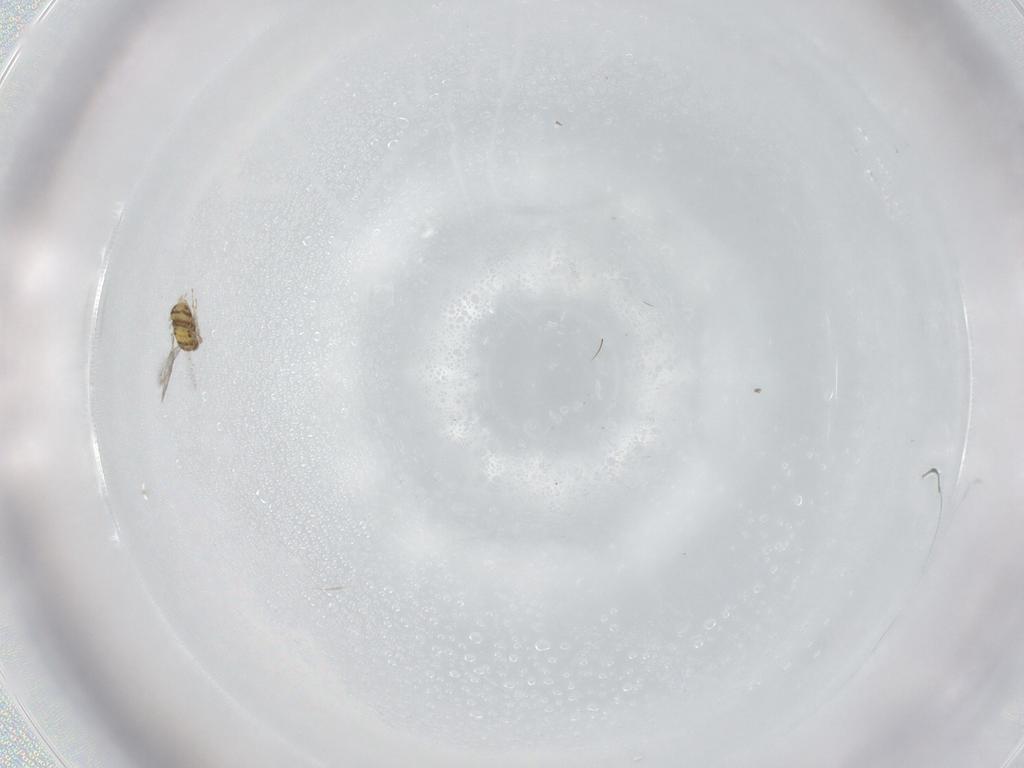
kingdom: Animalia
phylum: Arthropoda
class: Insecta
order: Hymenoptera
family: Aphelinidae
